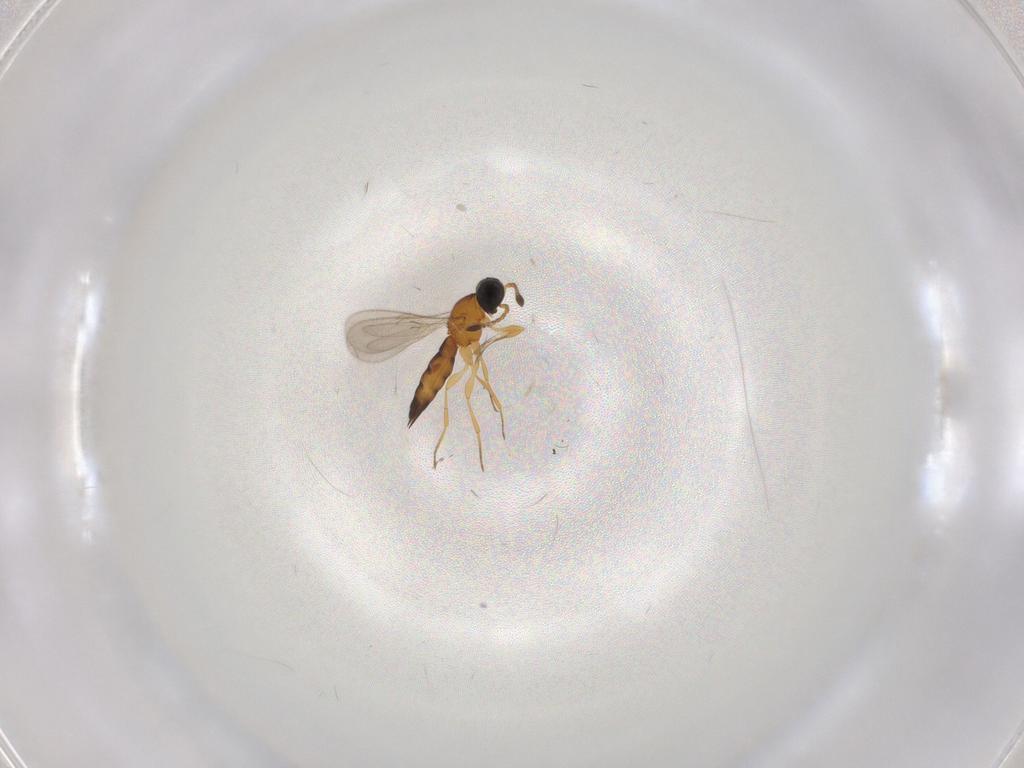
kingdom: Animalia
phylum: Arthropoda
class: Insecta
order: Hymenoptera
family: Scelionidae
